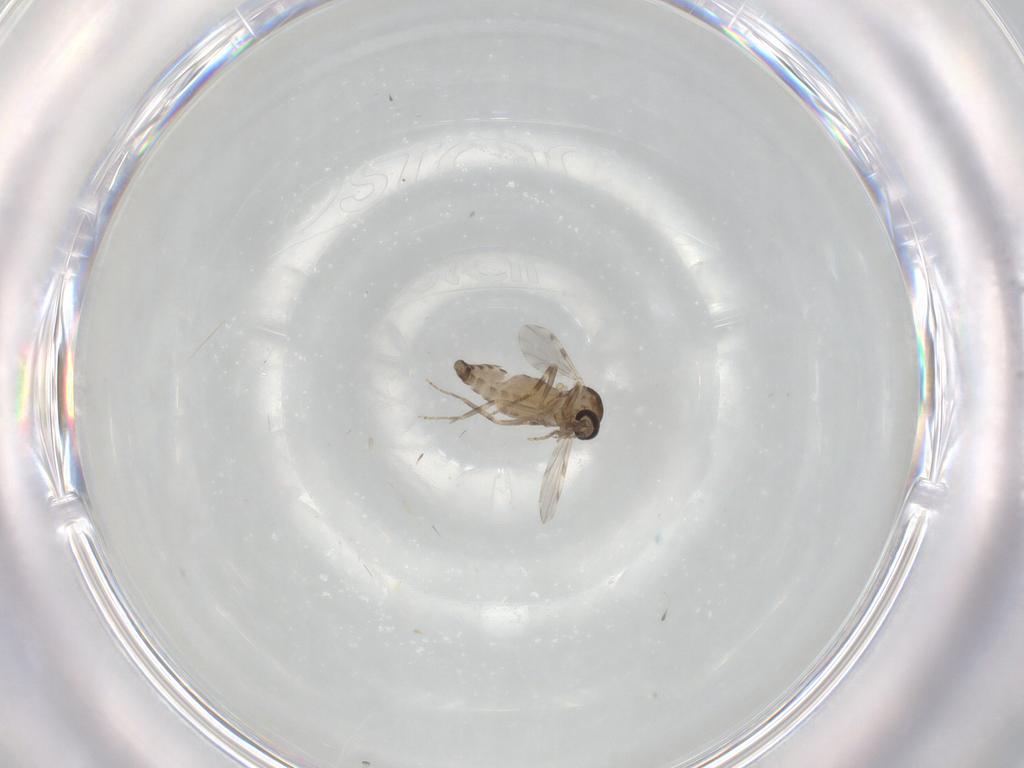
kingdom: Animalia
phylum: Arthropoda
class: Insecta
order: Diptera
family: Ceratopogonidae
